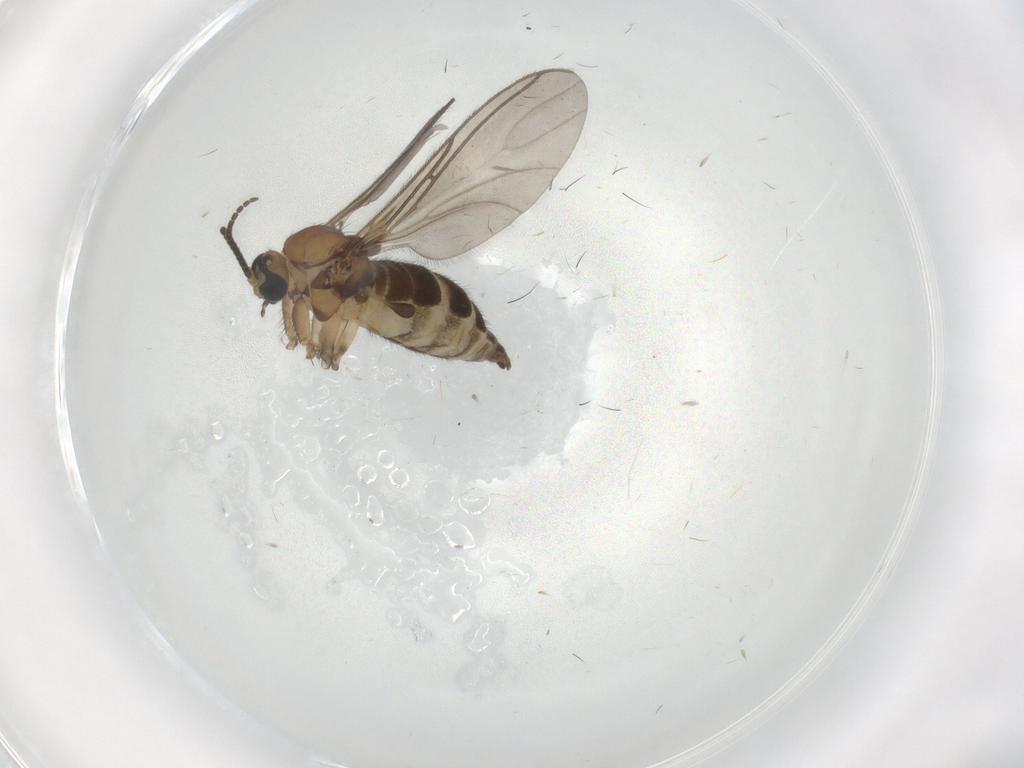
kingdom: Animalia
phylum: Arthropoda
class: Insecta
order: Diptera
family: Sciaridae
